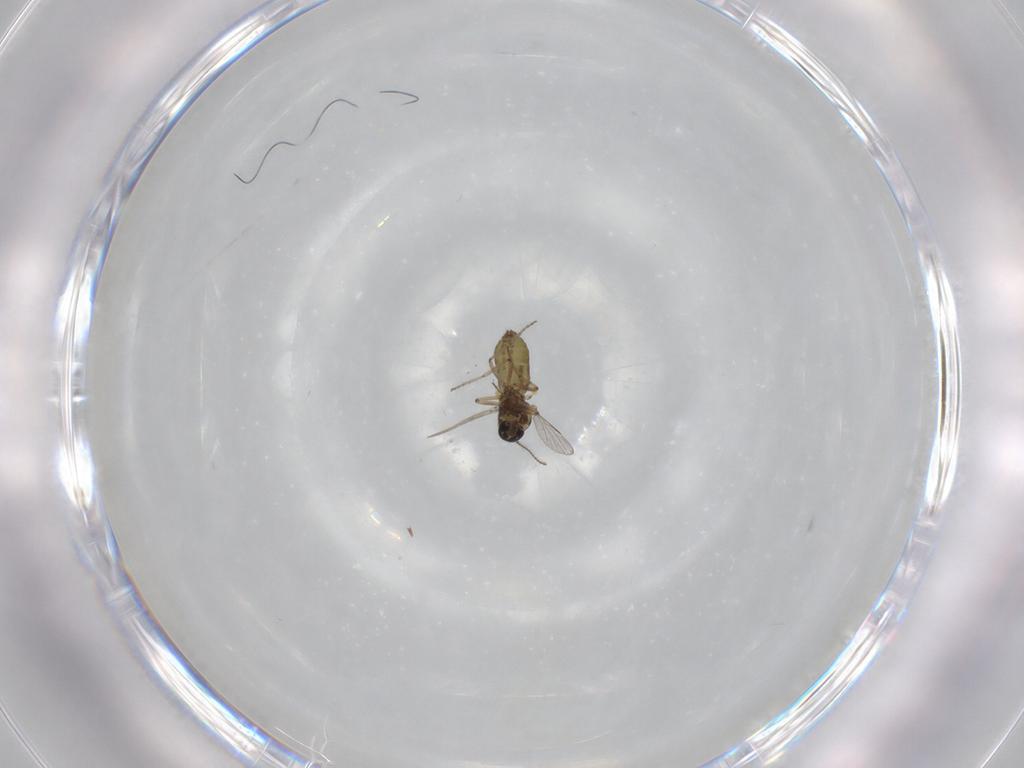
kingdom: Animalia
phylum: Arthropoda
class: Insecta
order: Diptera
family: Ceratopogonidae
